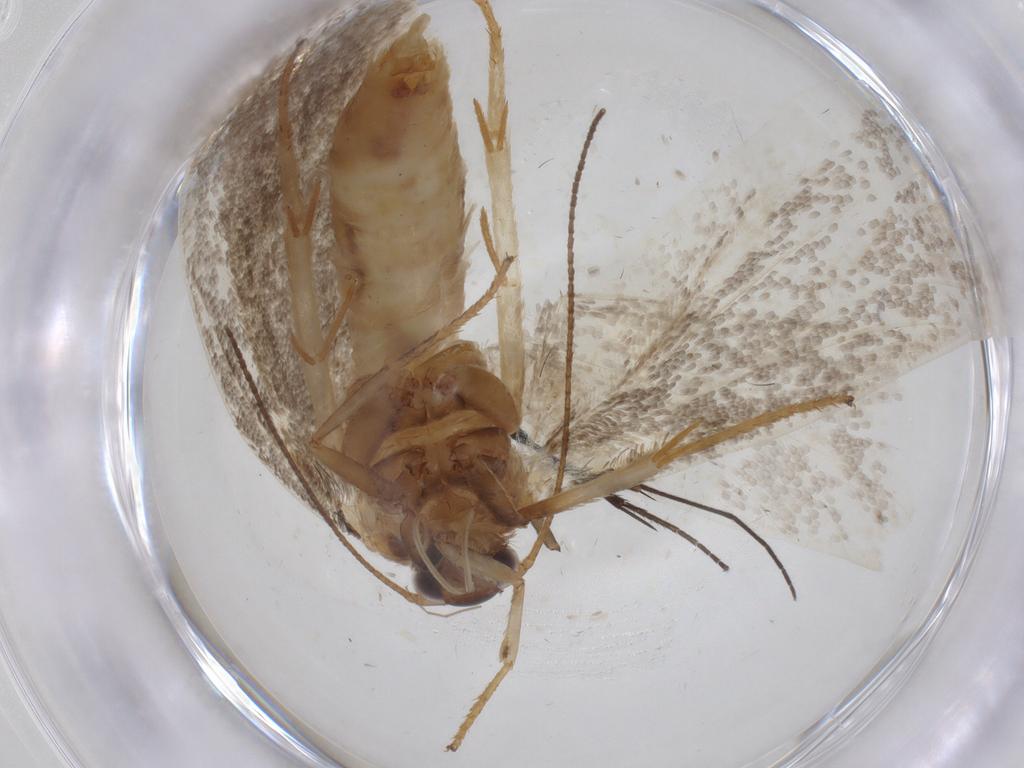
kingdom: Animalia
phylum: Arthropoda
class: Insecta
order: Lepidoptera
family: Oecophoridae
